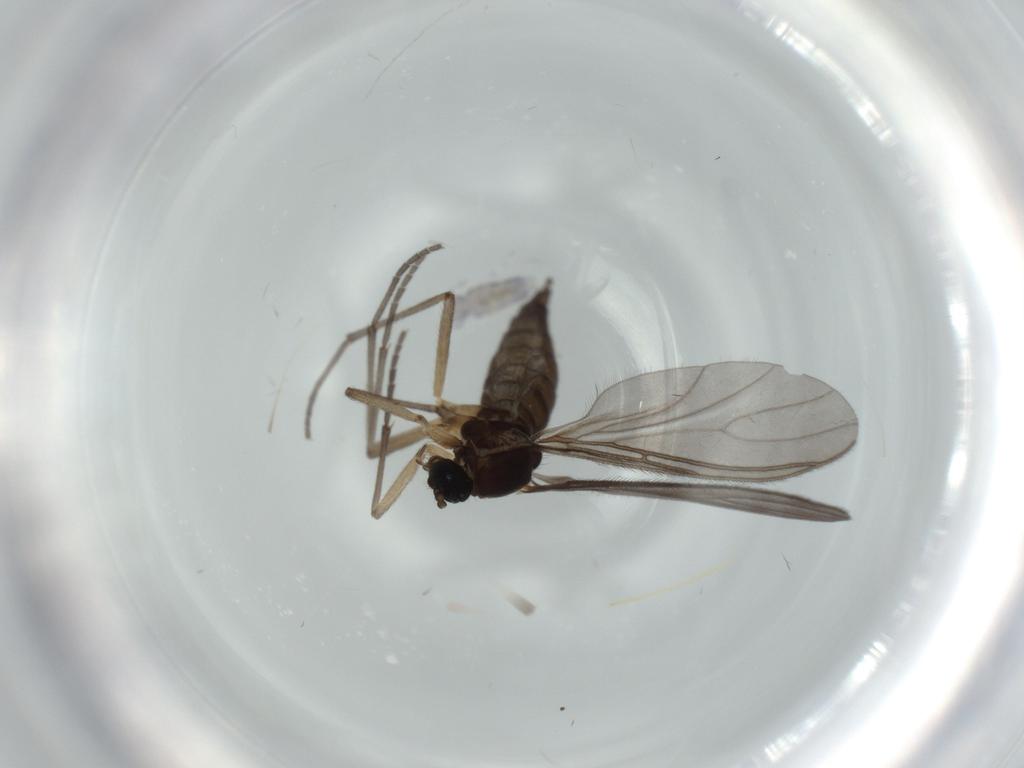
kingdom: Animalia
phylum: Arthropoda
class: Insecta
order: Diptera
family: Sciaridae
